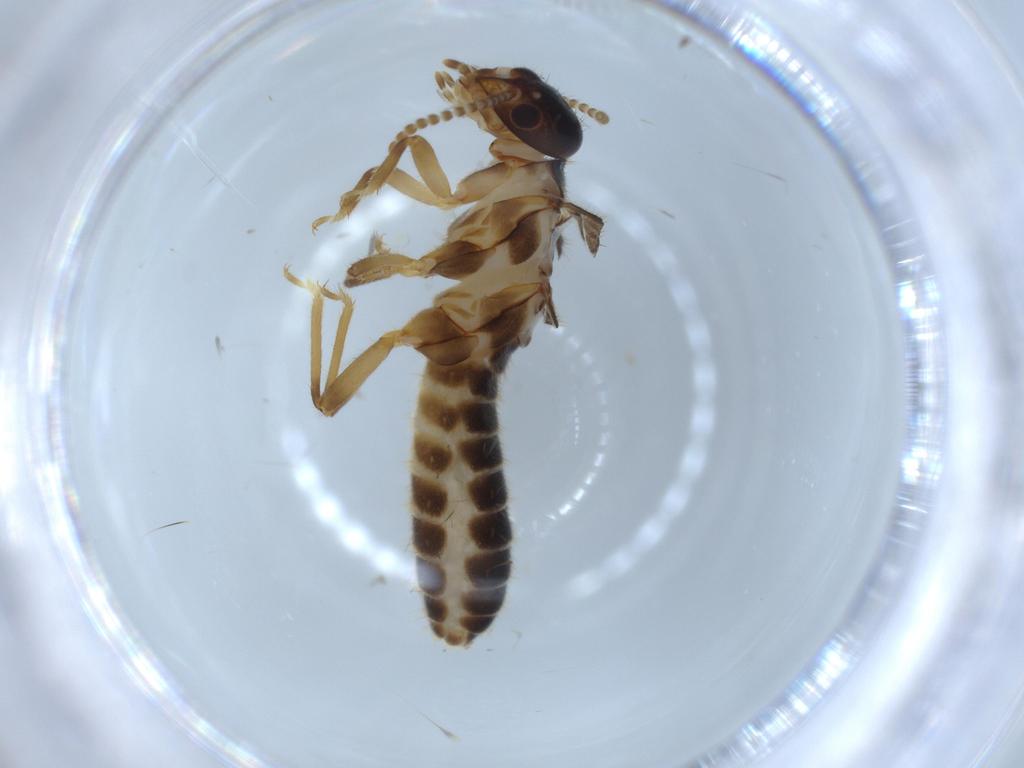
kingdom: Animalia
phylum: Arthropoda
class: Insecta
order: Blattodea
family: Termitidae
